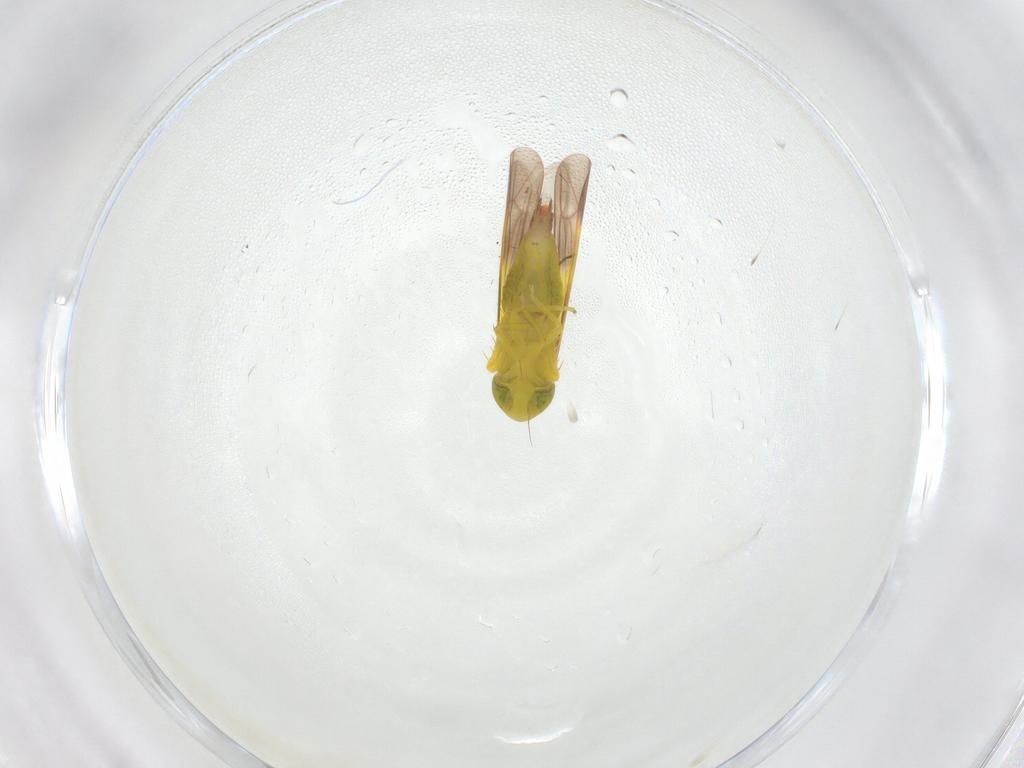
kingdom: Animalia
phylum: Arthropoda
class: Insecta
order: Hemiptera
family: Cicadellidae
